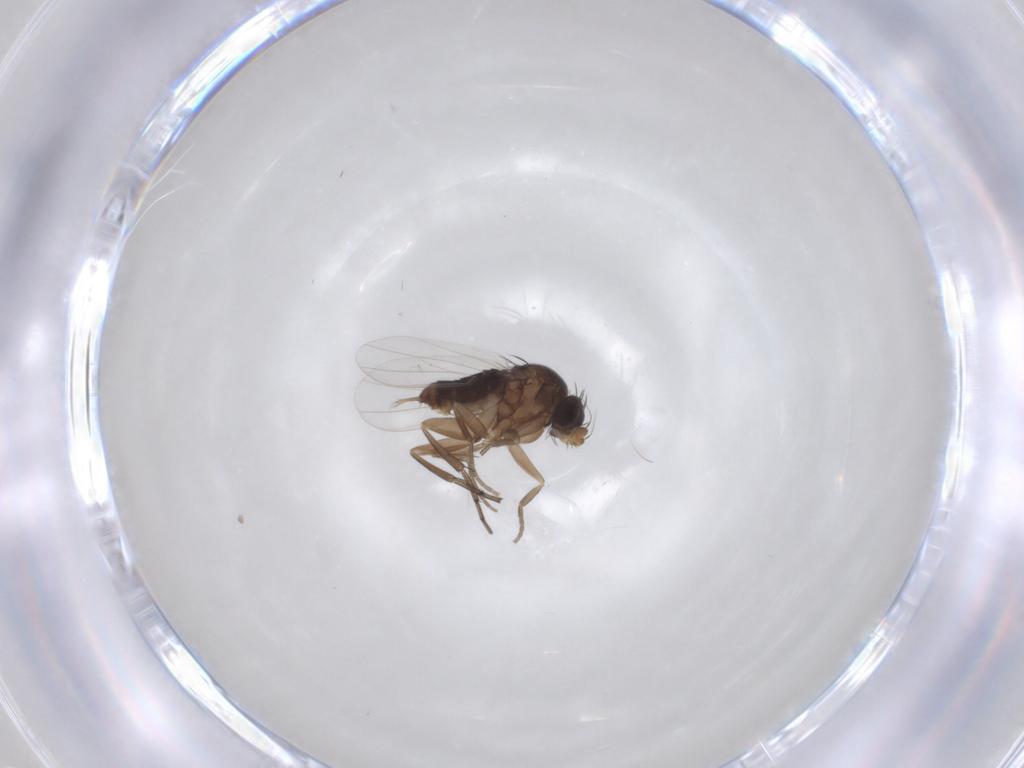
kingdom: Animalia
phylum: Arthropoda
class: Insecta
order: Diptera
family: Phoridae
